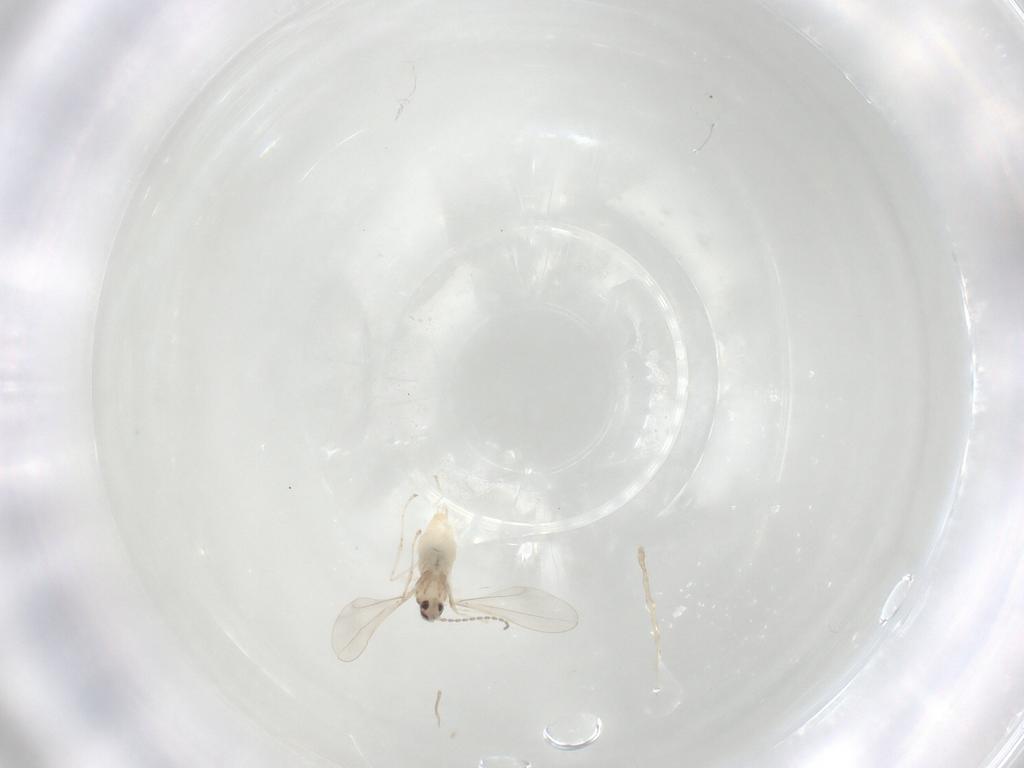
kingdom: Animalia
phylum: Arthropoda
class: Insecta
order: Diptera
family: Cecidomyiidae
